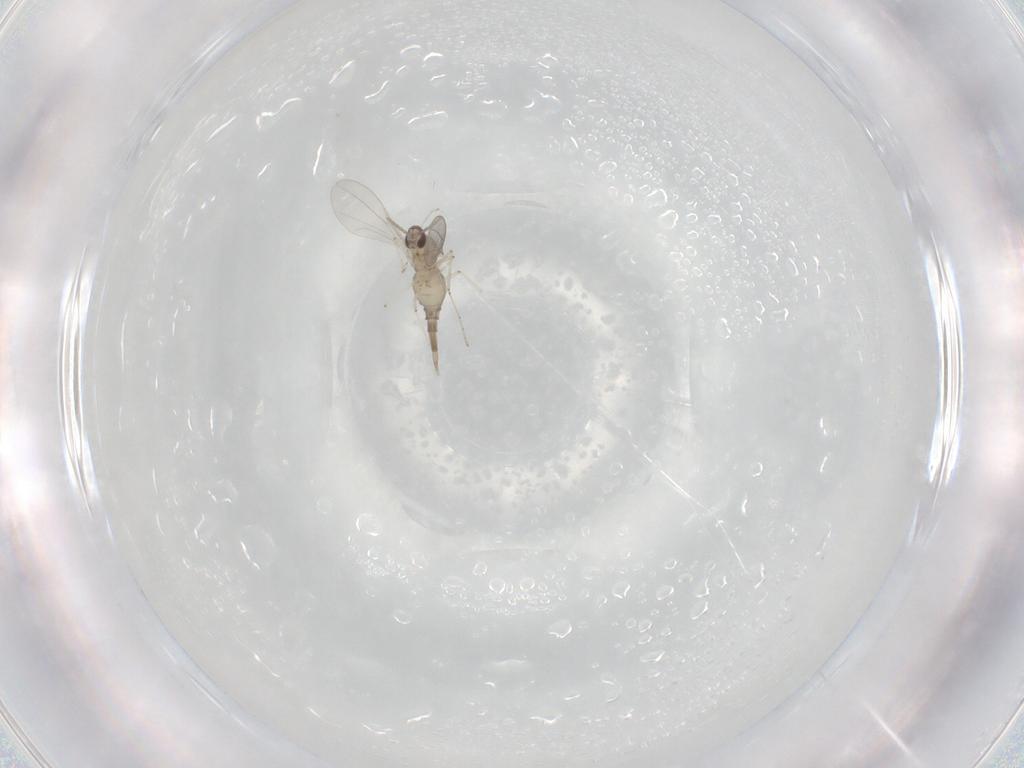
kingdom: Animalia
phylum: Arthropoda
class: Insecta
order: Diptera
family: Cecidomyiidae
